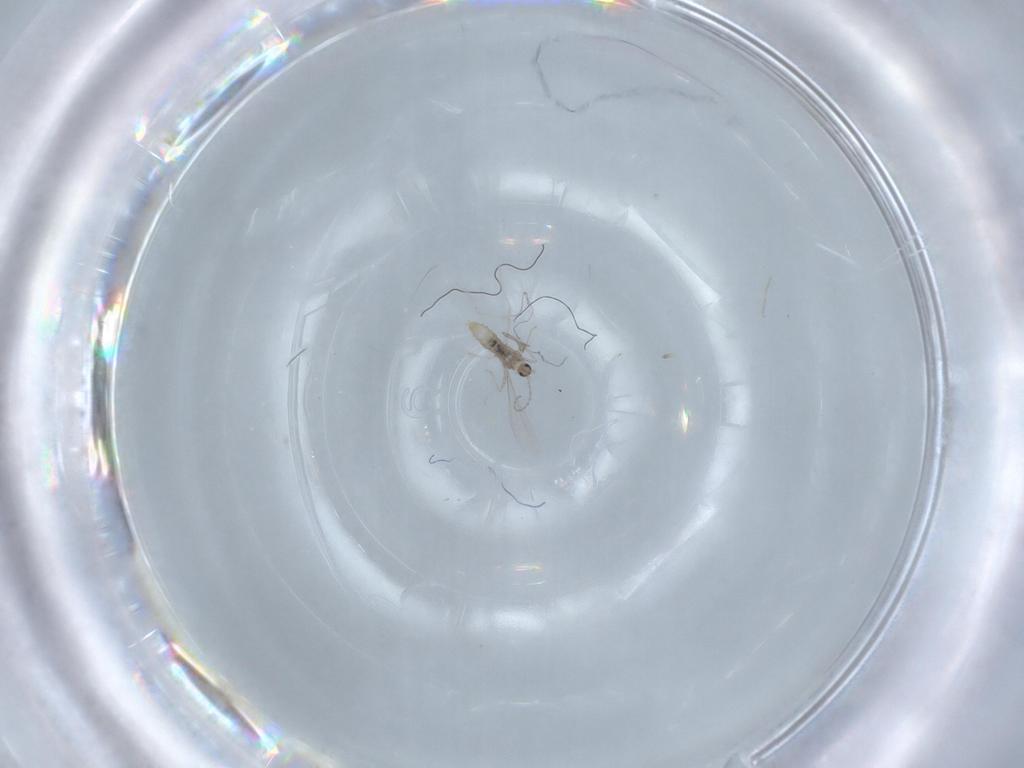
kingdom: Animalia
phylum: Arthropoda
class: Insecta
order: Diptera
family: Cecidomyiidae
